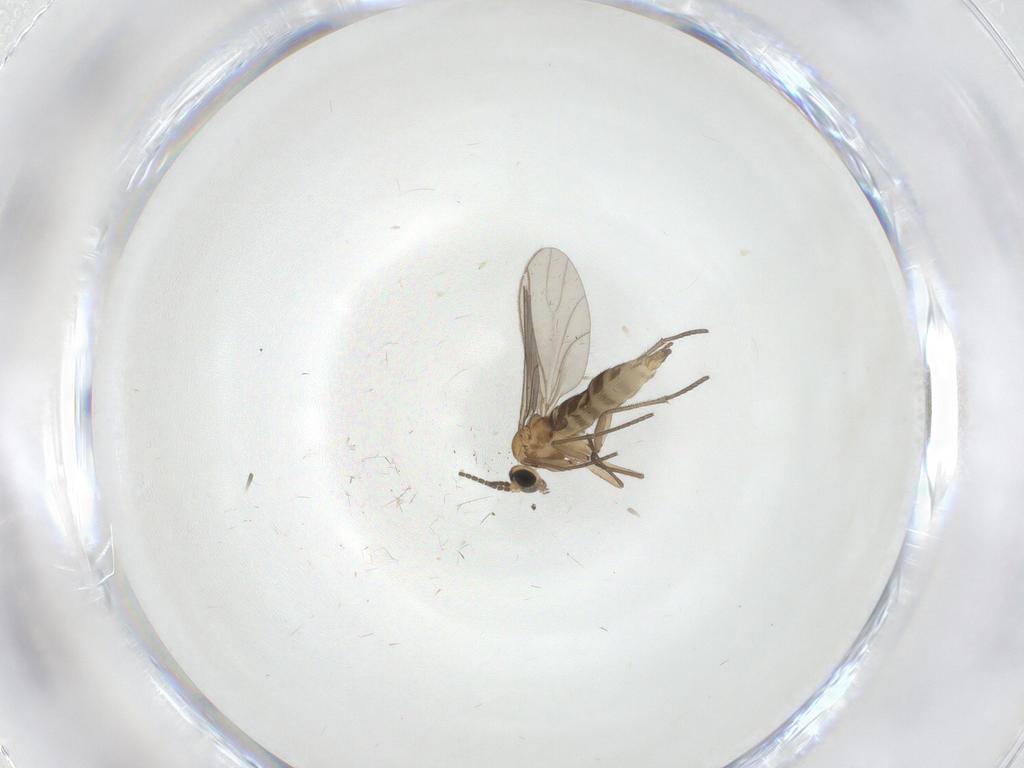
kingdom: Animalia
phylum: Arthropoda
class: Insecta
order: Diptera
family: Sciaridae
